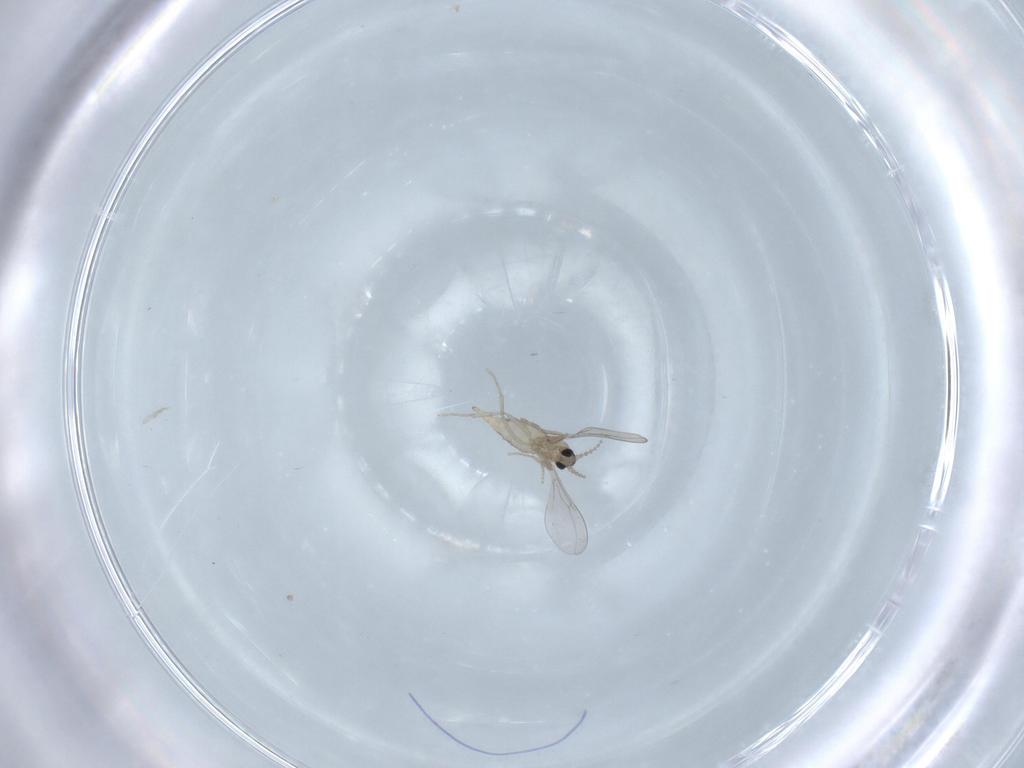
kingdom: Animalia
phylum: Arthropoda
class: Insecta
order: Diptera
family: Cecidomyiidae
